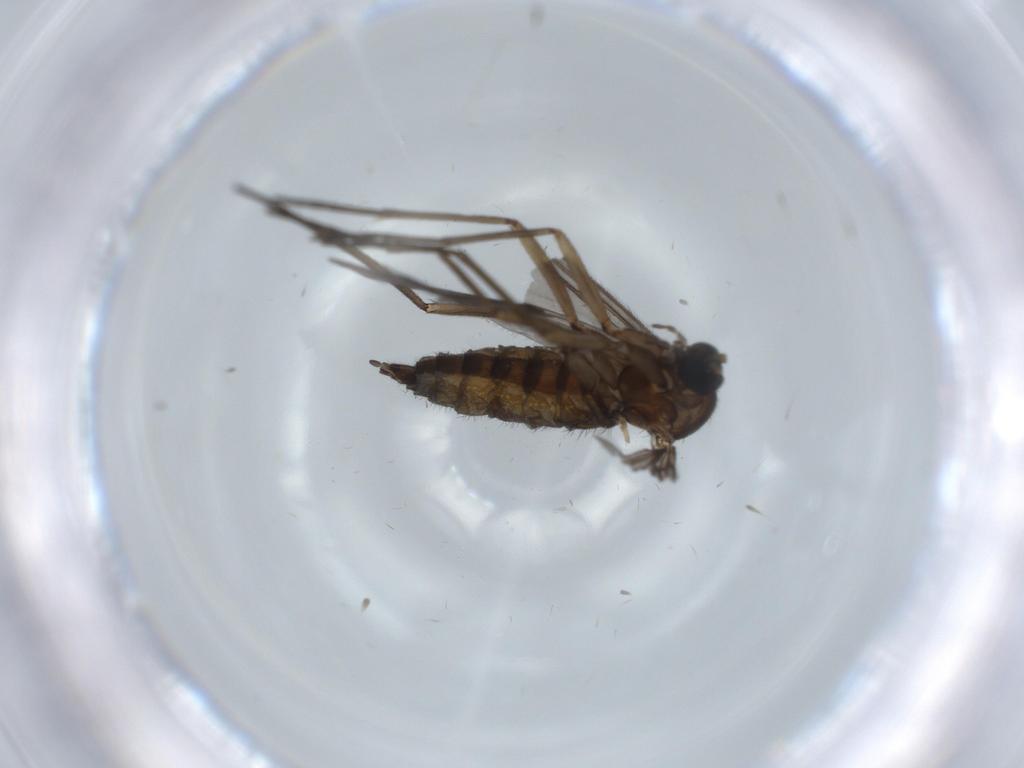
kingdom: Animalia
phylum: Arthropoda
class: Insecta
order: Diptera
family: Sciaridae
